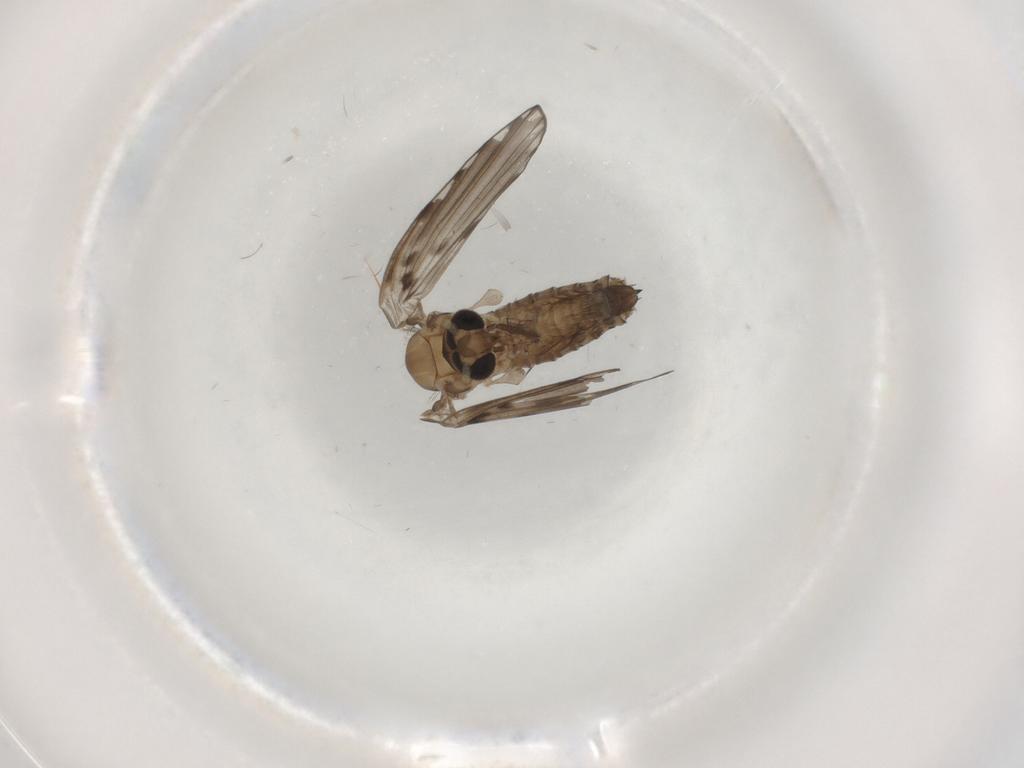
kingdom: Animalia
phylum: Arthropoda
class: Insecta
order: Diptera
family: Psychodidae
